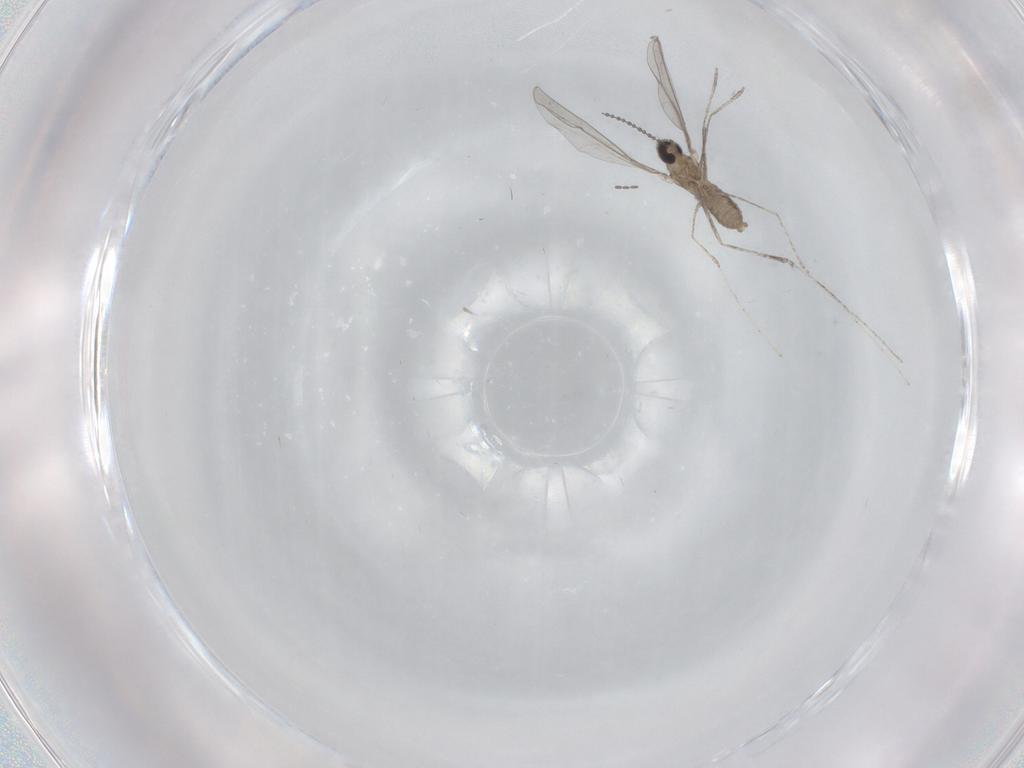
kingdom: Animalia
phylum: Arthropoda
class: Insecta
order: Diptera
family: Cecidomyiidae
